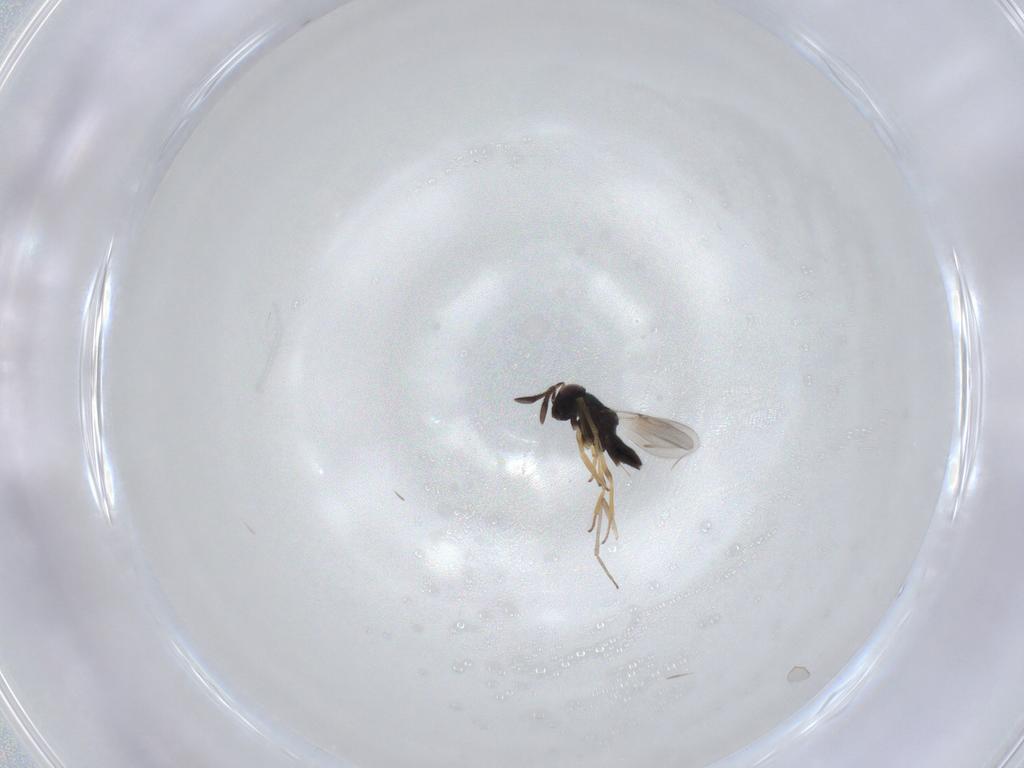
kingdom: Animalia
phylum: Arthropoda
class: Insecta
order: Hymenoptera
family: Encyrtidae
